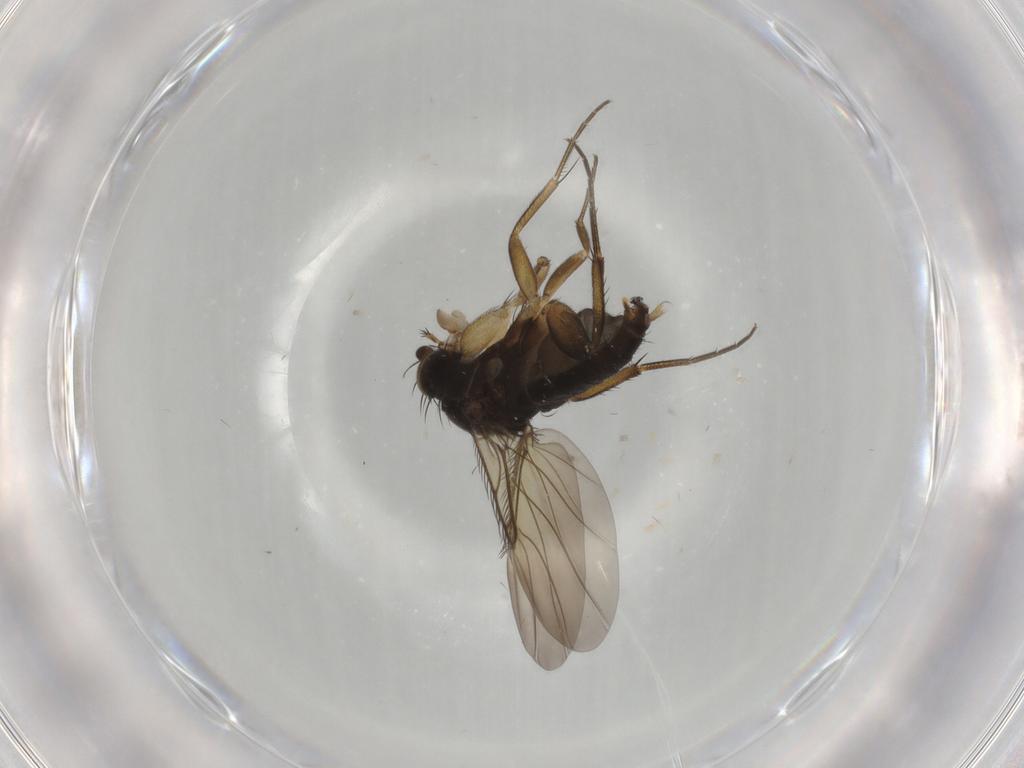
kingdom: Animalia
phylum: Arthropoda
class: Insecta
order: Diptera
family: Phoridae
